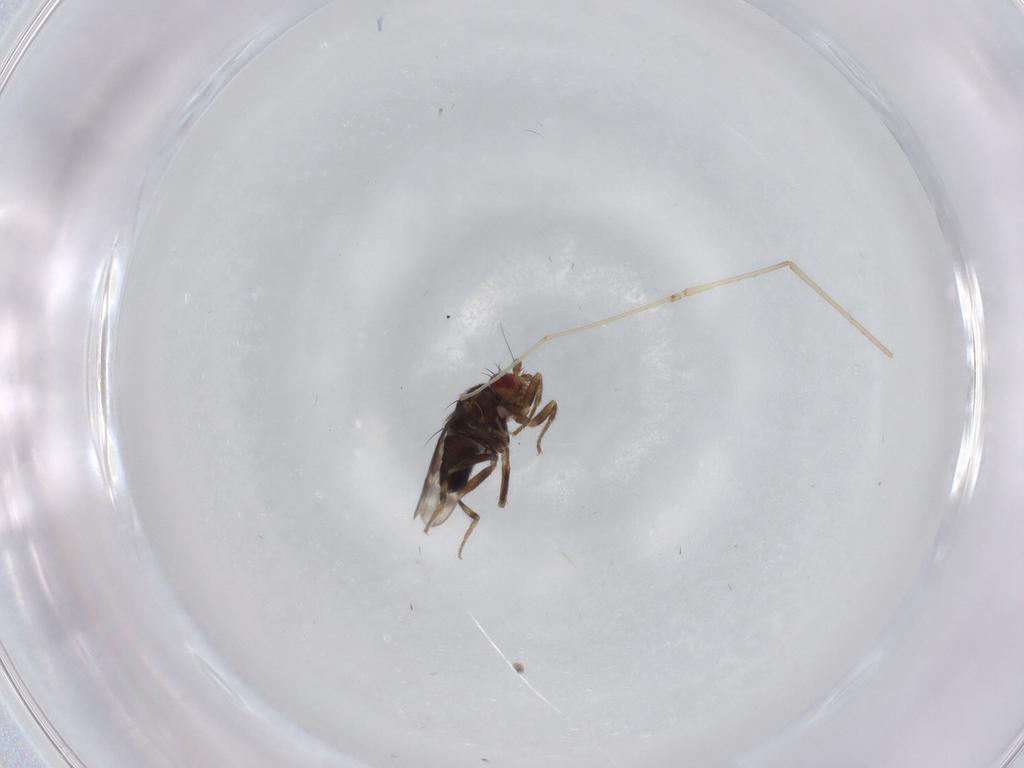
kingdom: Animalia
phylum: Arthropoda
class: Insecta
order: Diptera
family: Sphaeroceridae
